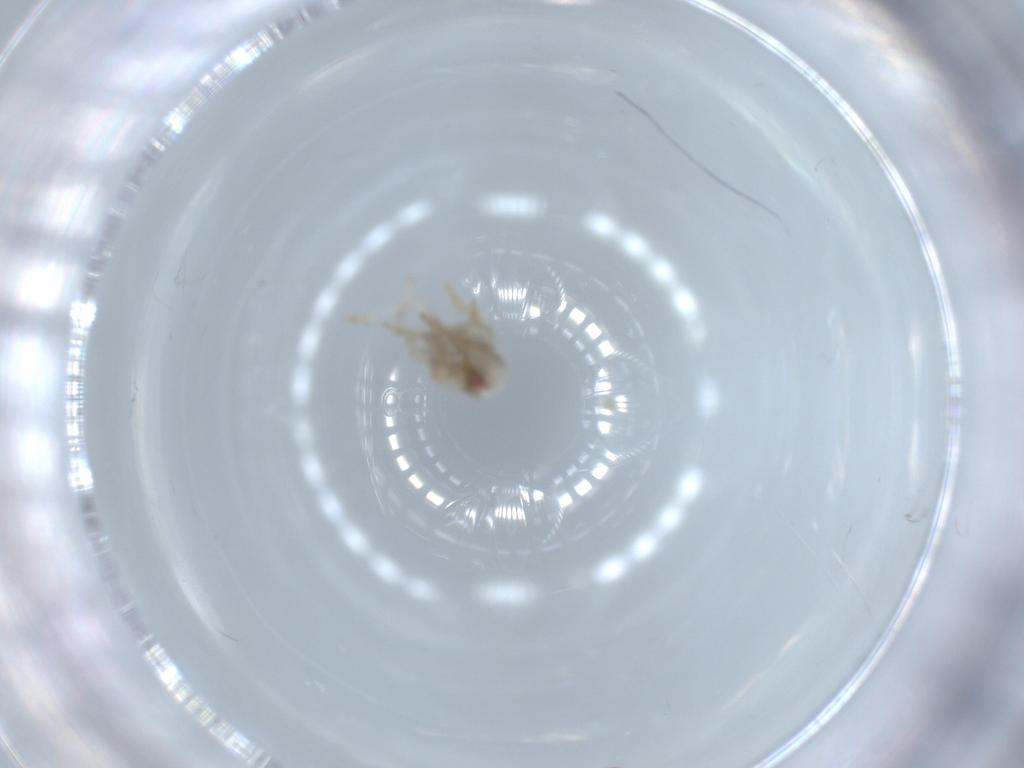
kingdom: Animalia
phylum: Arthropoda
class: Insecta
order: Hemiptera
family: Acanaloniidae
